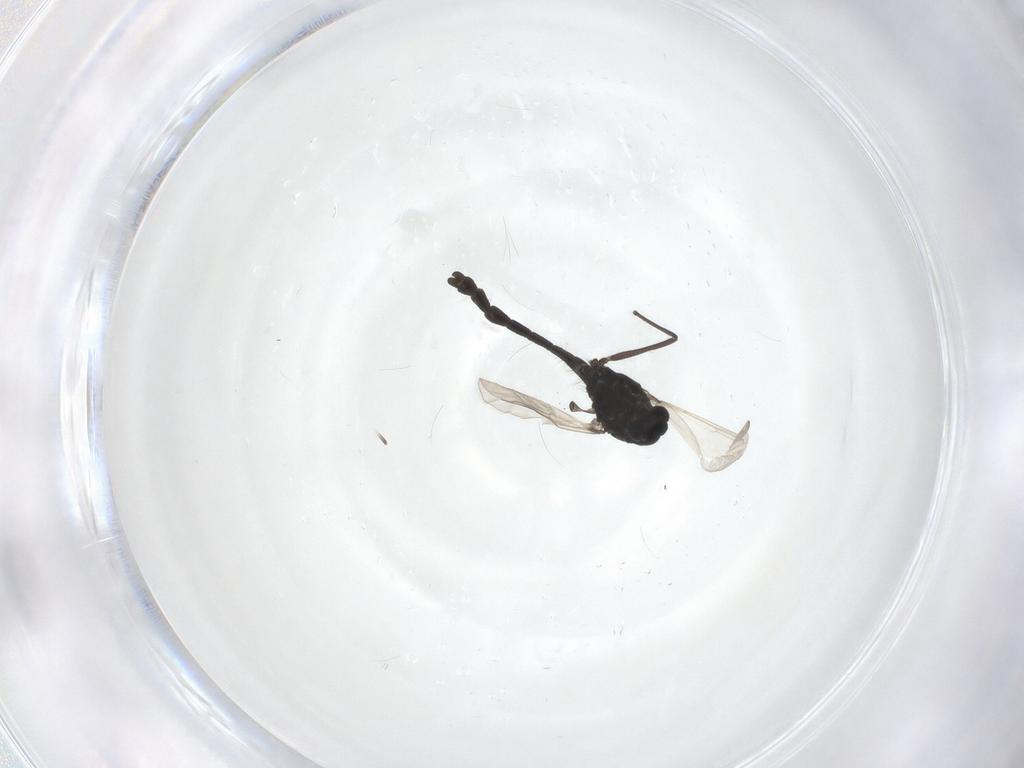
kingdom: Animalia
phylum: Arthropoda
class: Insecta
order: Diptera
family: Chironomidae
